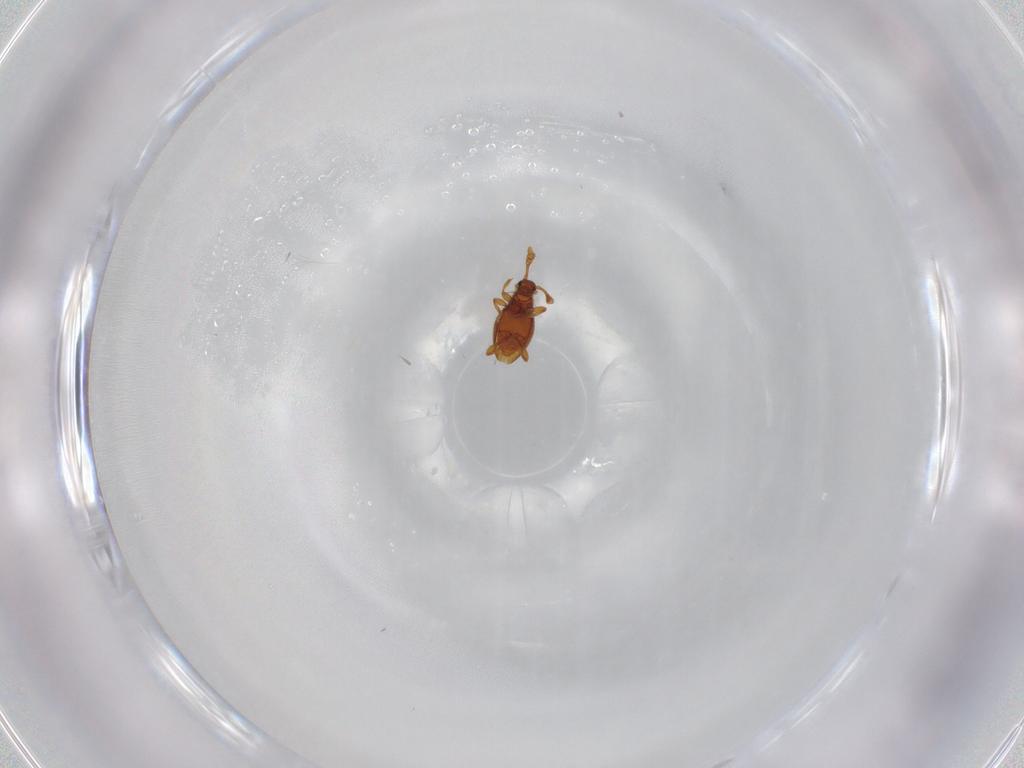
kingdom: Animalia
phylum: Arthropoda
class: Insecta
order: Coleoptera
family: Staphylinidae
